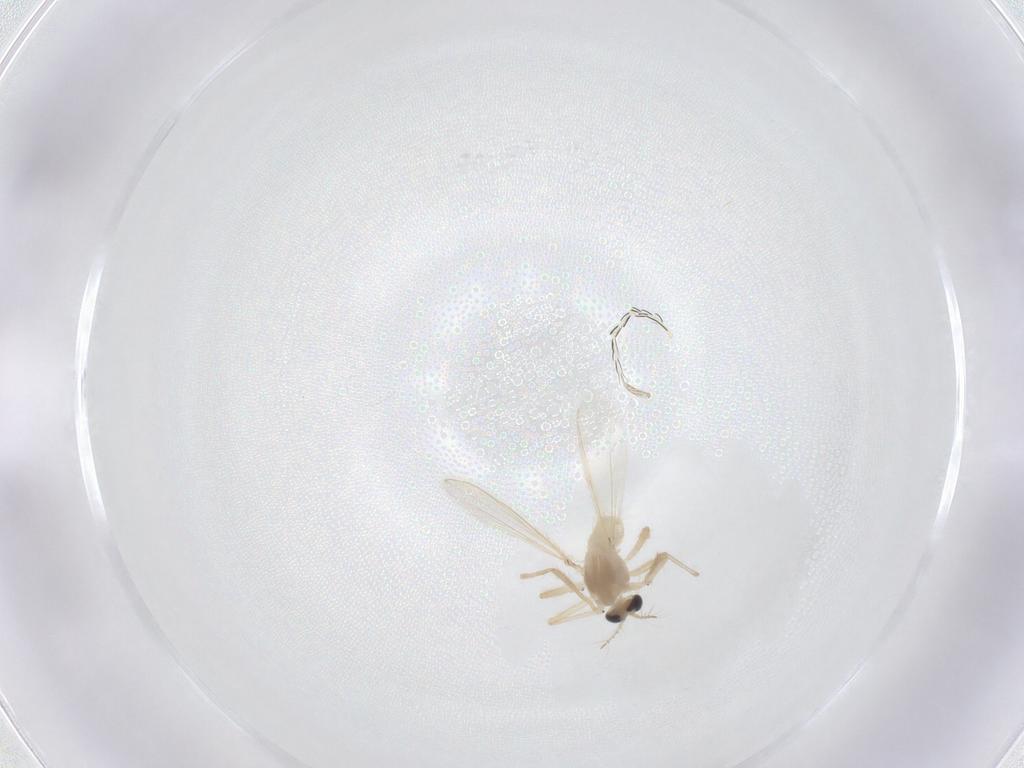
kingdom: Animalia
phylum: Arthropoda
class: Insecta
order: Diptera
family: Chironomidae
